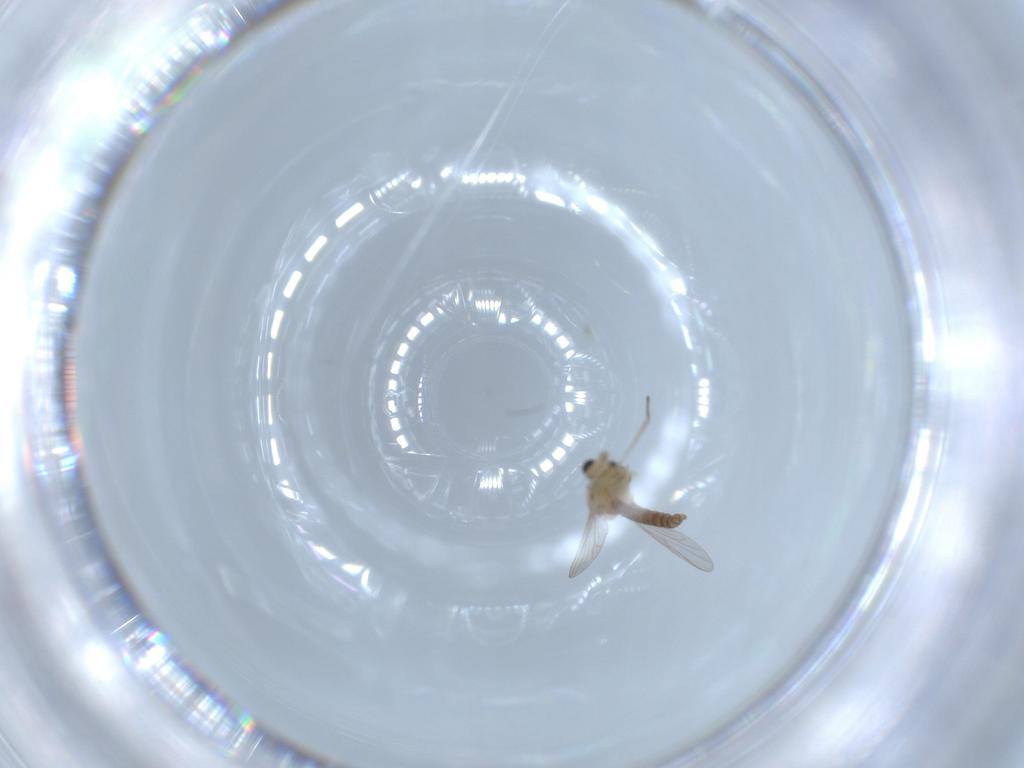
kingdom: Animalia
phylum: Arthropoda
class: Insecta
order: Diptera
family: Chironomidae
